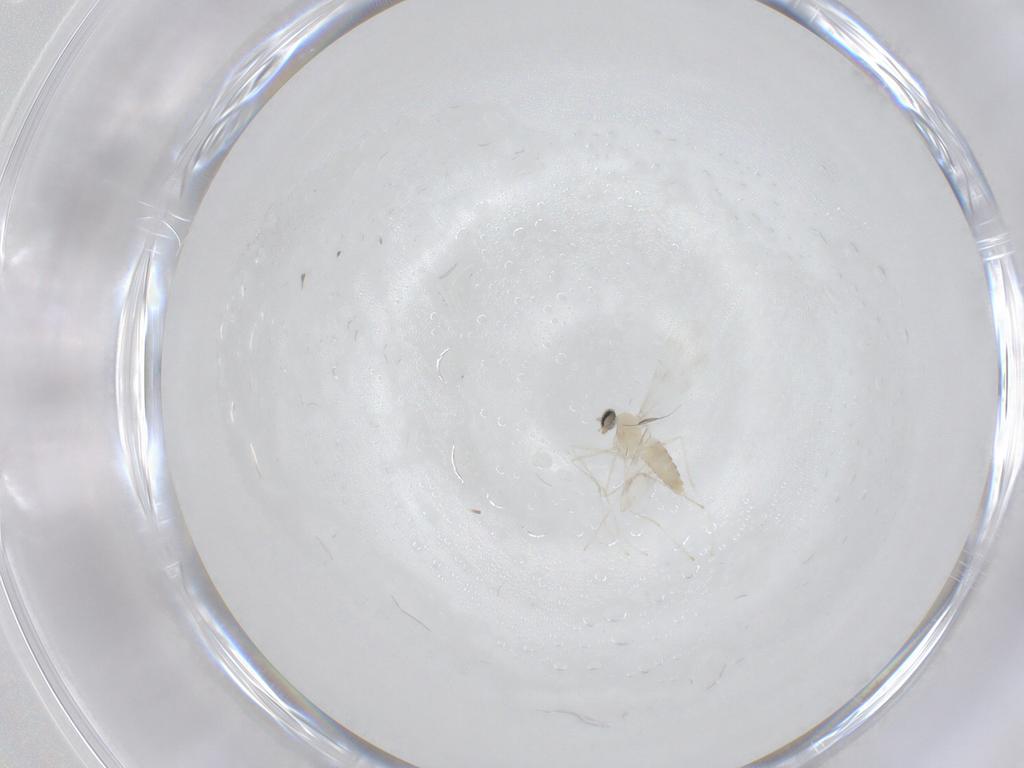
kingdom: Animalia
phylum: Arthropoda
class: Insecta
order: Diptera
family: Cecidomyiidae
